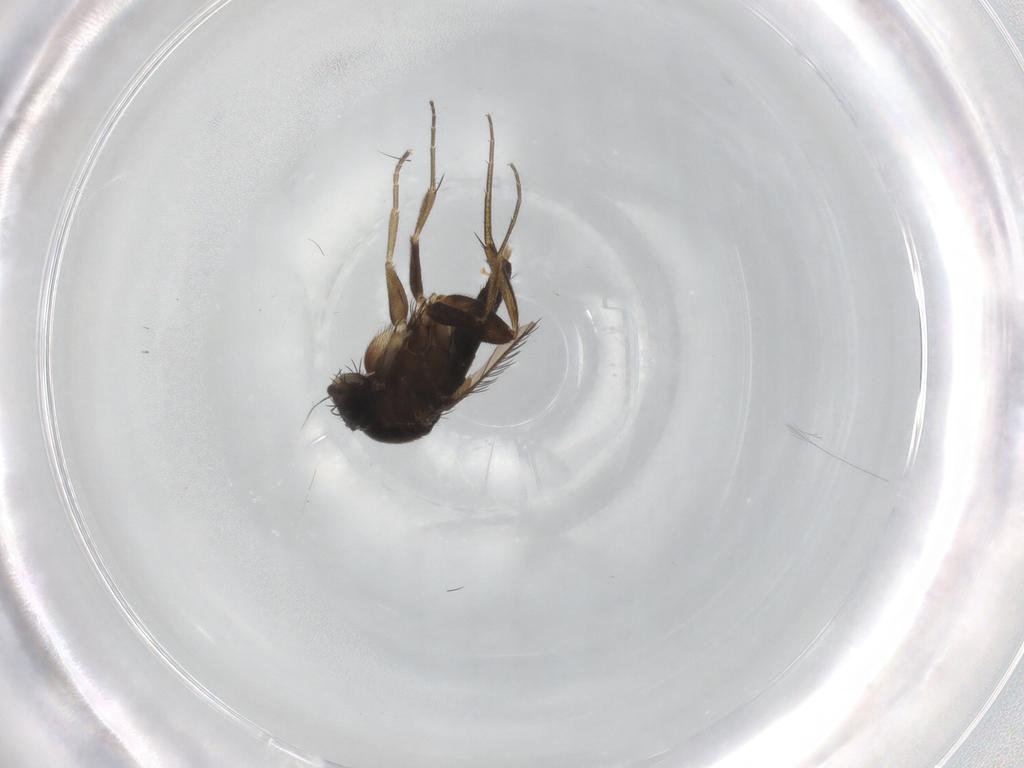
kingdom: Animalia
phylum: Arthropoda
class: Insecta
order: Diptera
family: Phoridae
